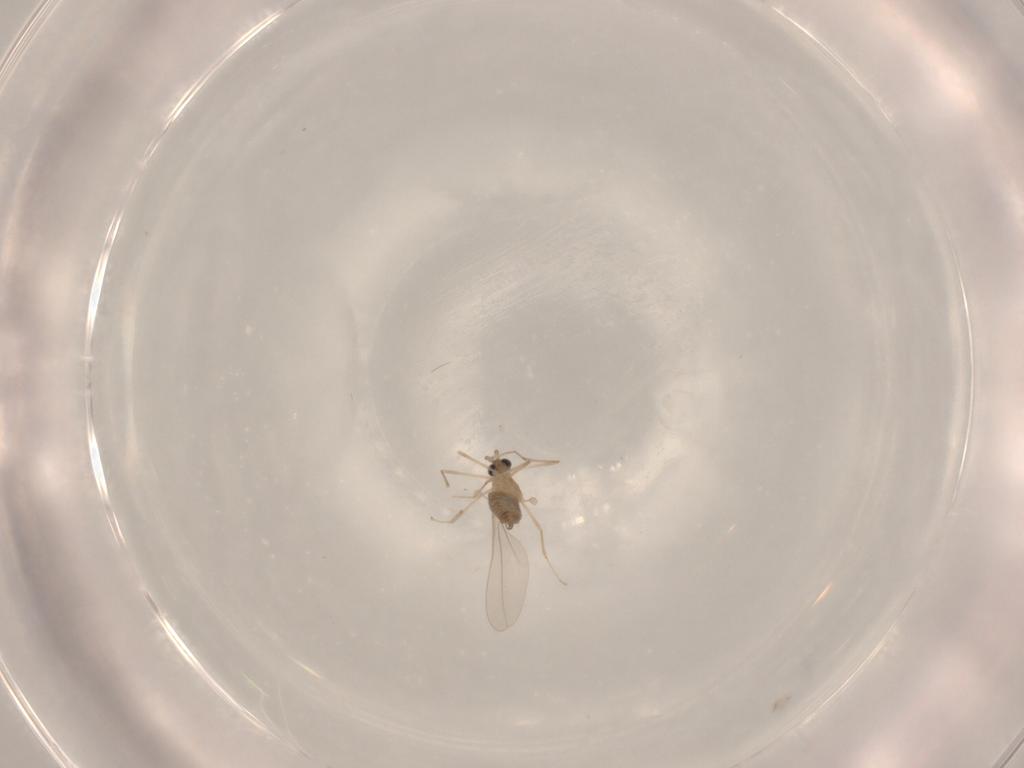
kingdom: Animalia
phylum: Arthropoda
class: Insecta
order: Diptera
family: Cecidomyiidae
